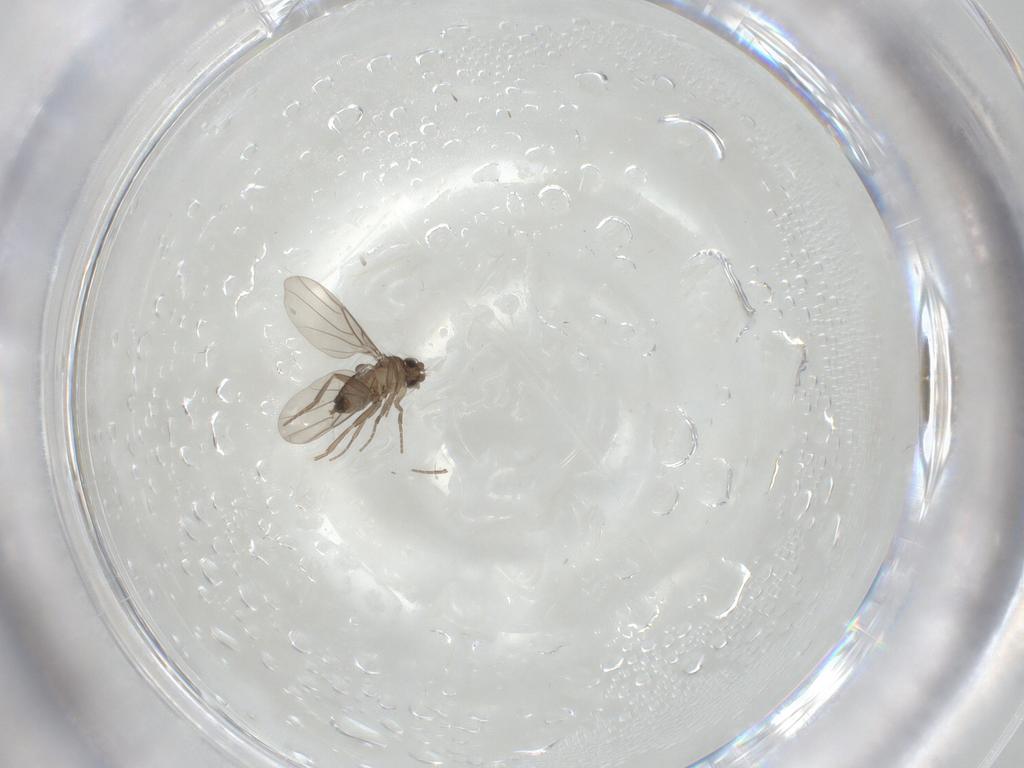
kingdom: Animalia
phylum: Arthropoda
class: Insecta
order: Diptera
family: Phoridae
